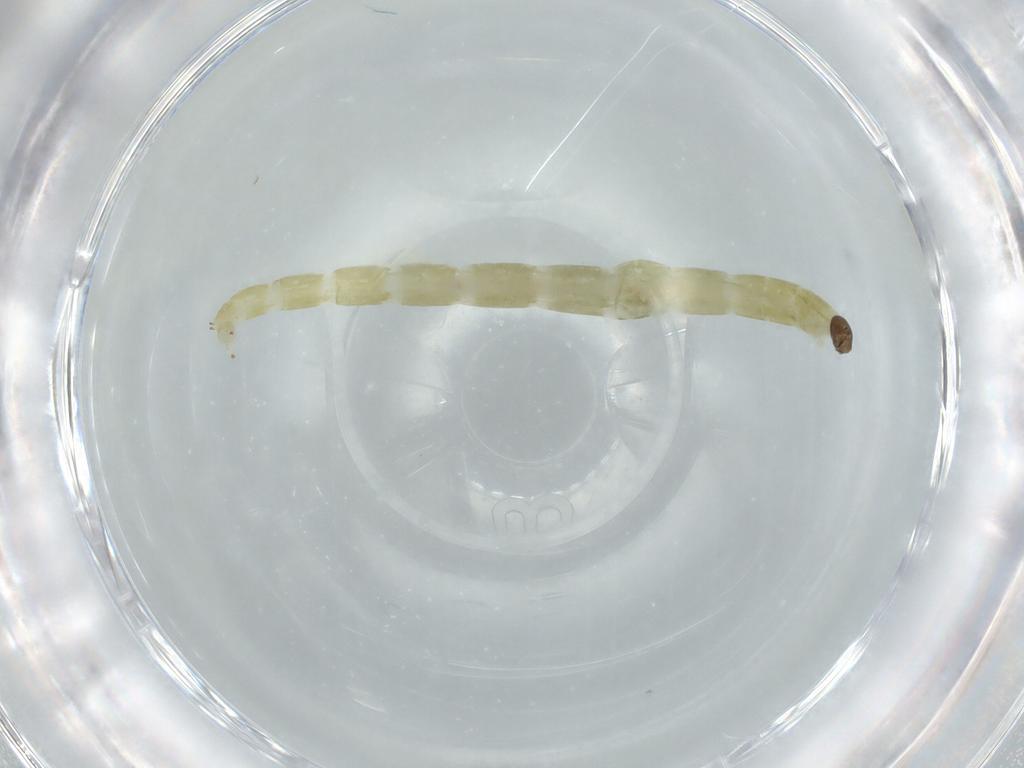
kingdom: Animalia
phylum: Arthropoda
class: Insecta
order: Diptera
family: Chironomidae
